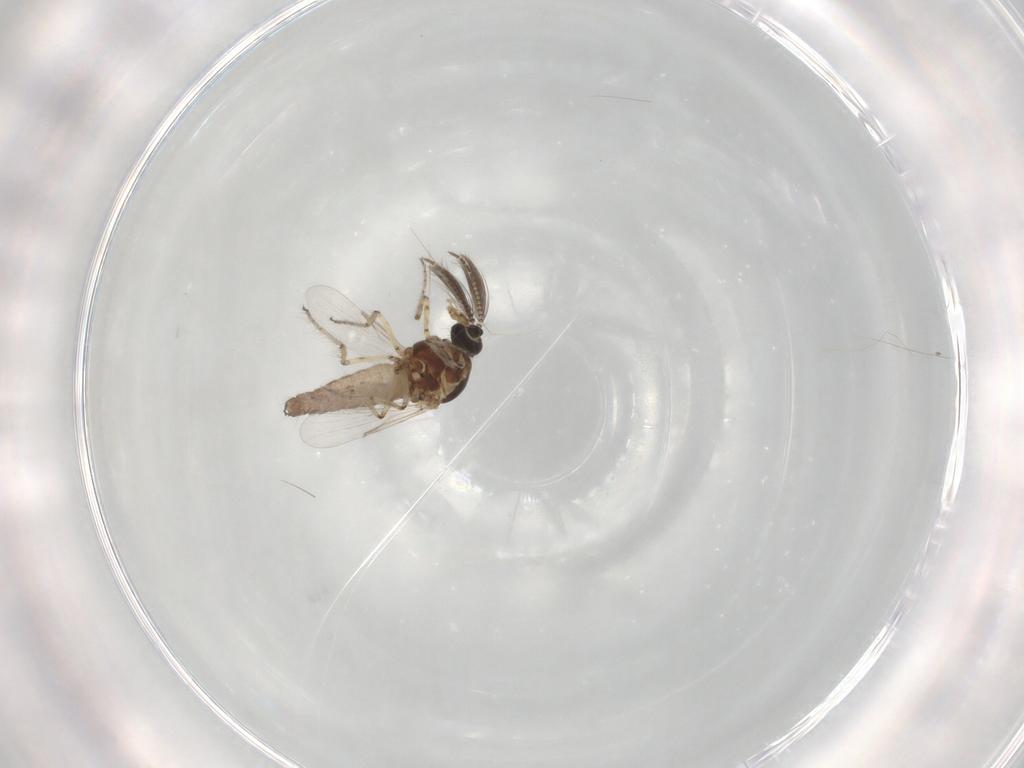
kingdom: Animalia
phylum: Arthropoda
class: Insecta
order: Diptera
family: Ceratopogonidae
